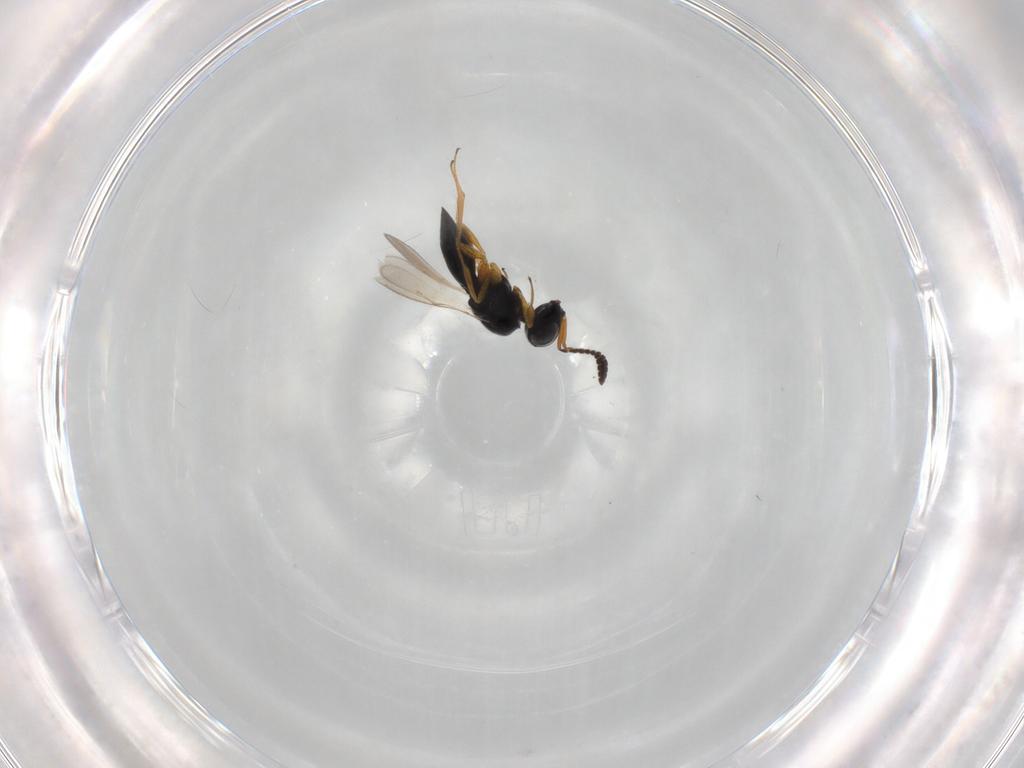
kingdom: Animalia
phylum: Arthropoda
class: Insecta
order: Hymenoptera
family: Scelionidae
